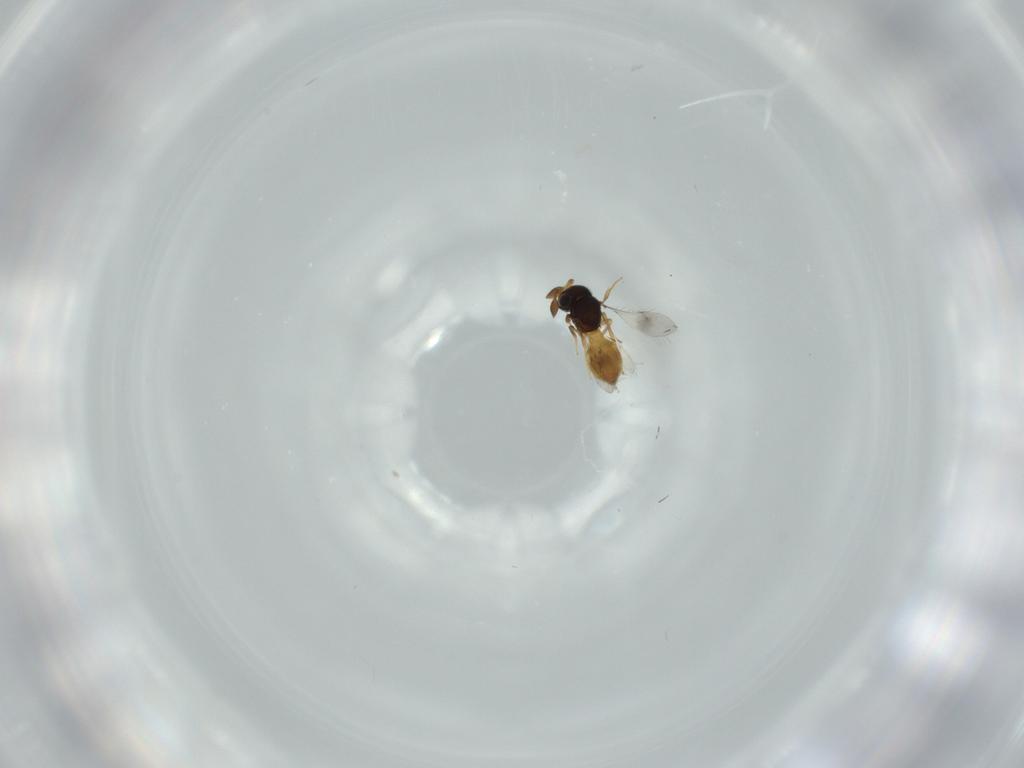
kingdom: Animalia
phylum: Arthropoda
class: Insecta
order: Hymenoptera
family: Scelionidae
